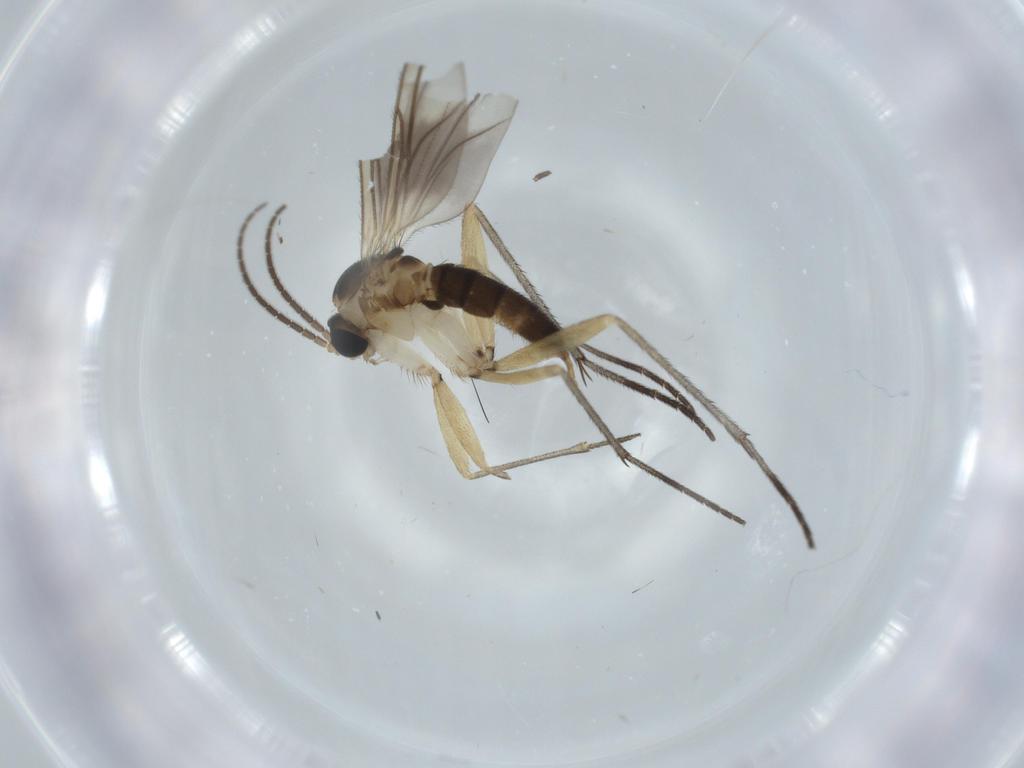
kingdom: Animalia
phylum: Arthropoda
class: Insecta
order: Diptera
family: Sciaridae
